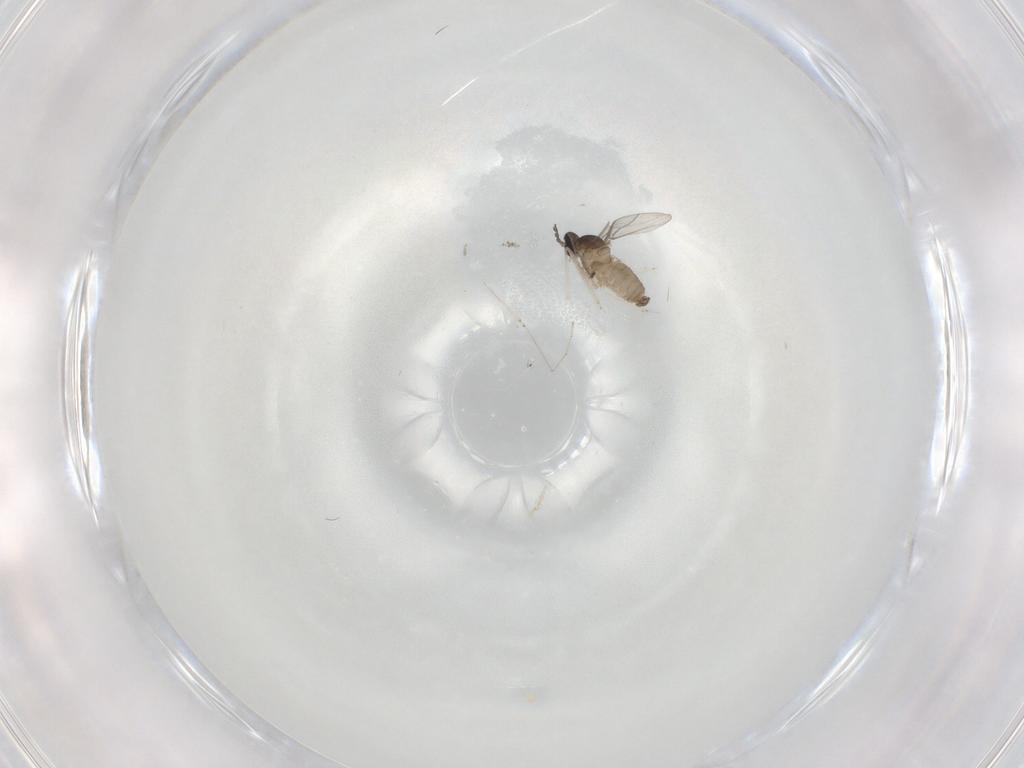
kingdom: Animalia
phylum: Arthropoda
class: Insecta
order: Diptera
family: Cecidomyiidae
